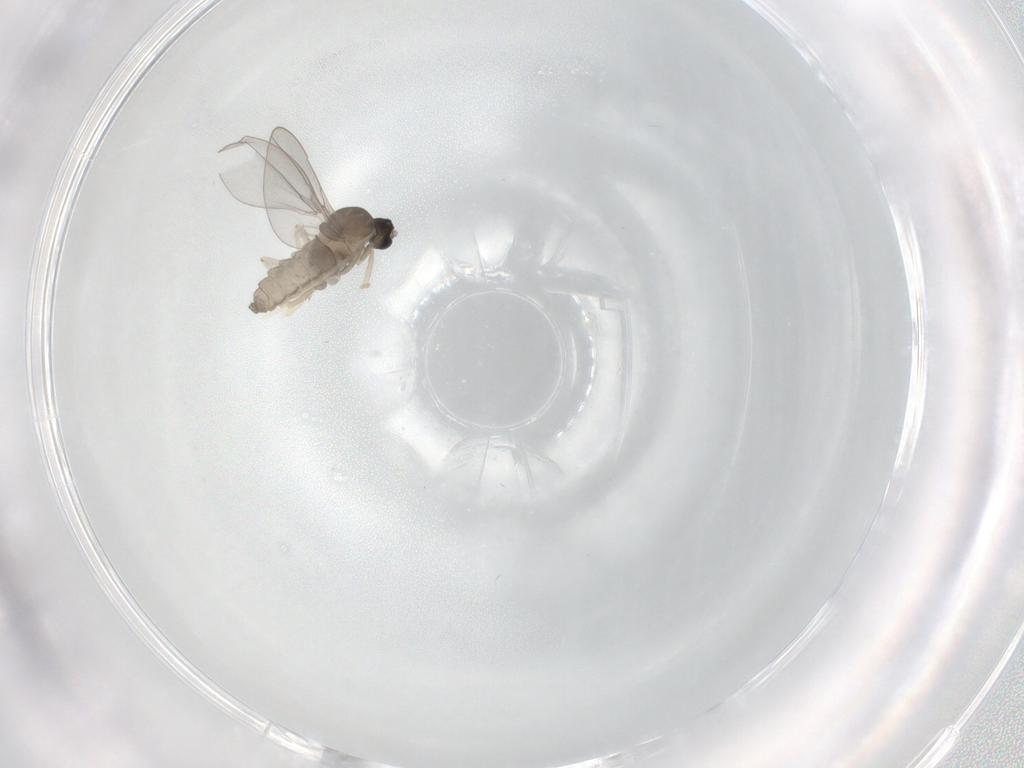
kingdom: Animalia
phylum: Arthropoda
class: Insecta
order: Diptera
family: Cecidomyiidae
